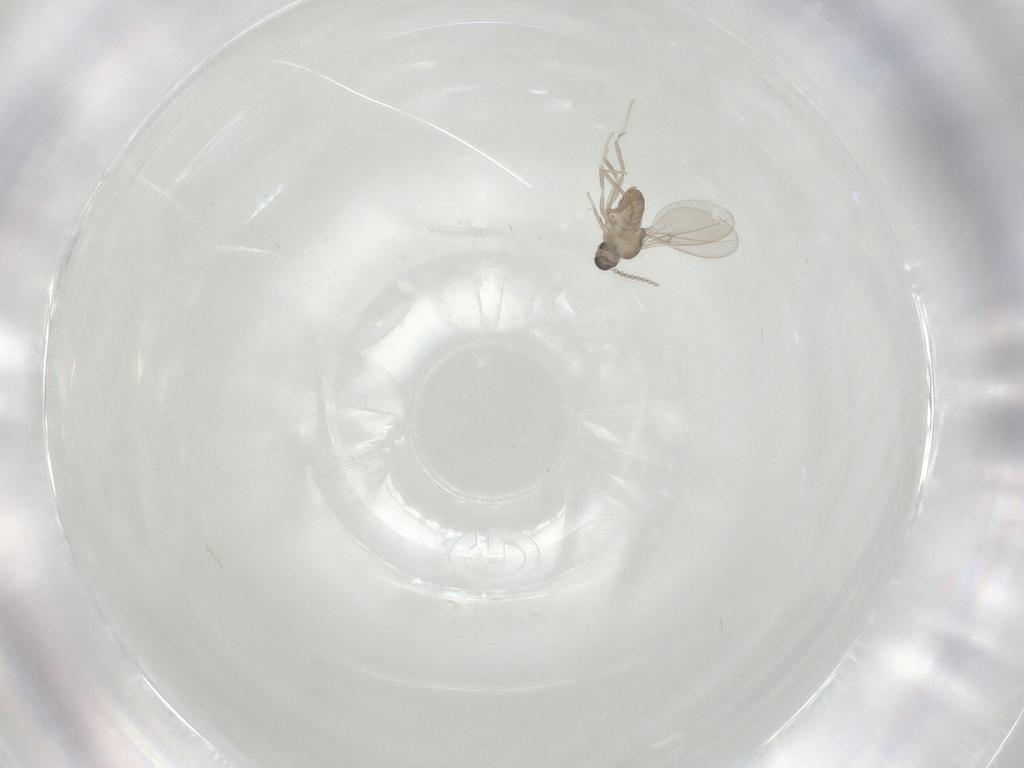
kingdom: Animalia
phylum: Arthropoda
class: Insecta
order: Diptera
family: Cecidomyiidae
